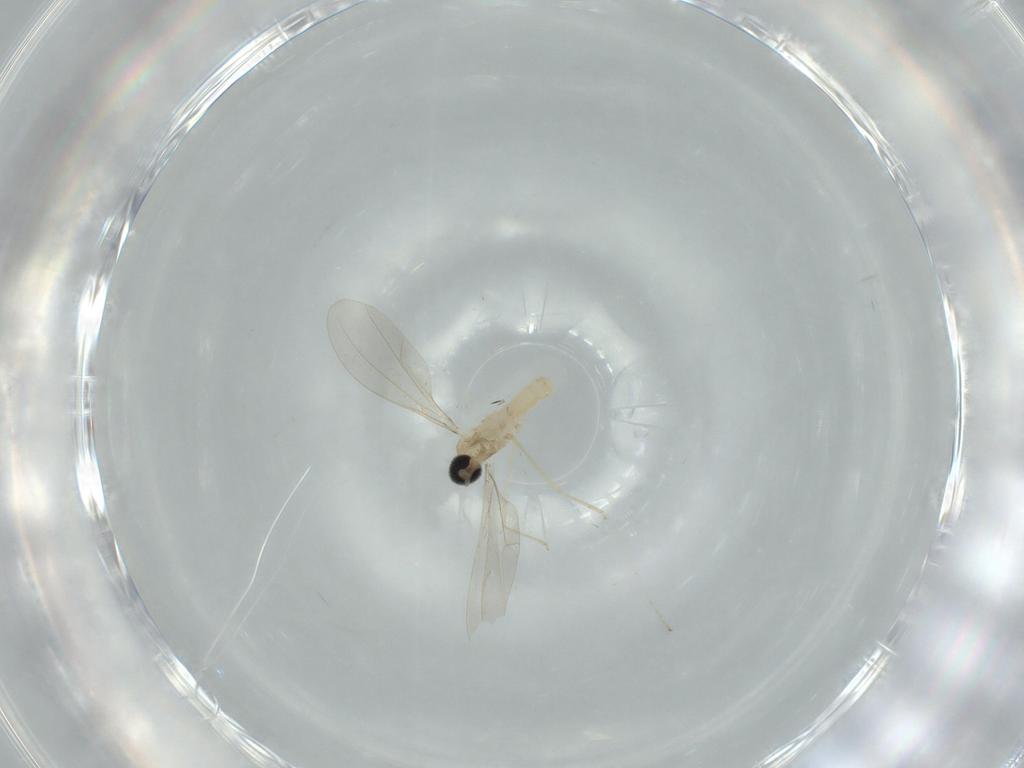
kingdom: Animalia
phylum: Arthropoda
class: Insecta
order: Diptera
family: Cecidomyiidae
